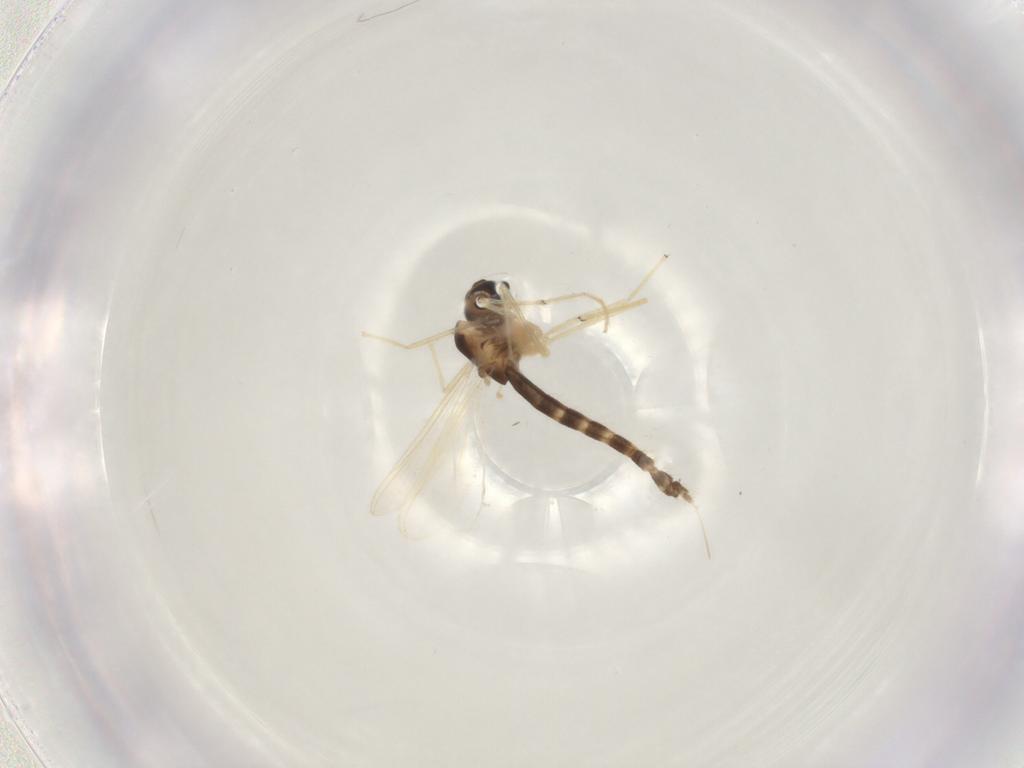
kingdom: Animalia
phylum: Arthropoda
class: Insecta
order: Diptera
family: Chironomidae
